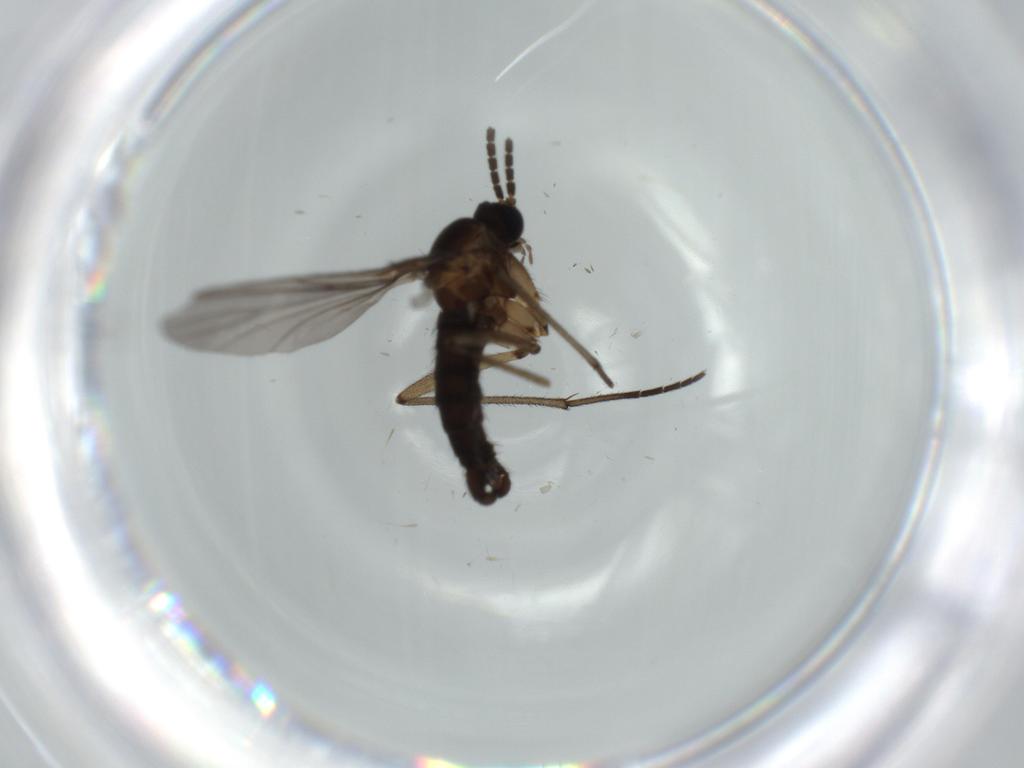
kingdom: Animalia
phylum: Arthropoda
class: Insecta
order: Diptera
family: Sciaridae
